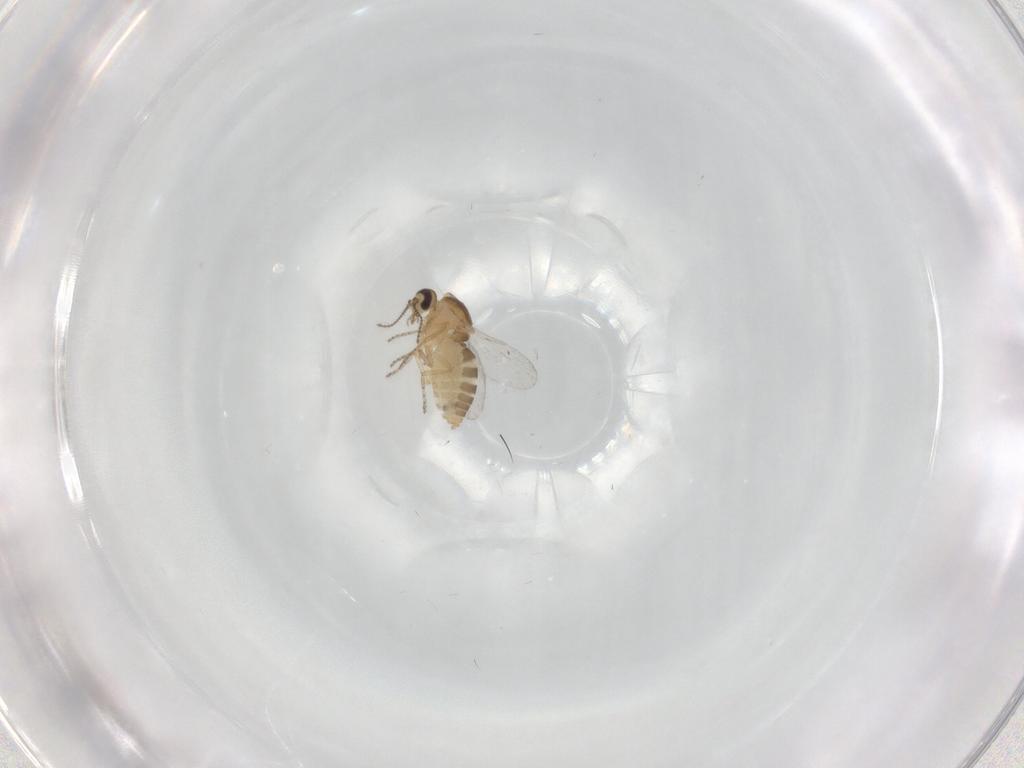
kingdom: Animalia
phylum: Arthropoda
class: Insecta
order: Diptera
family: Ceratopogonidae
